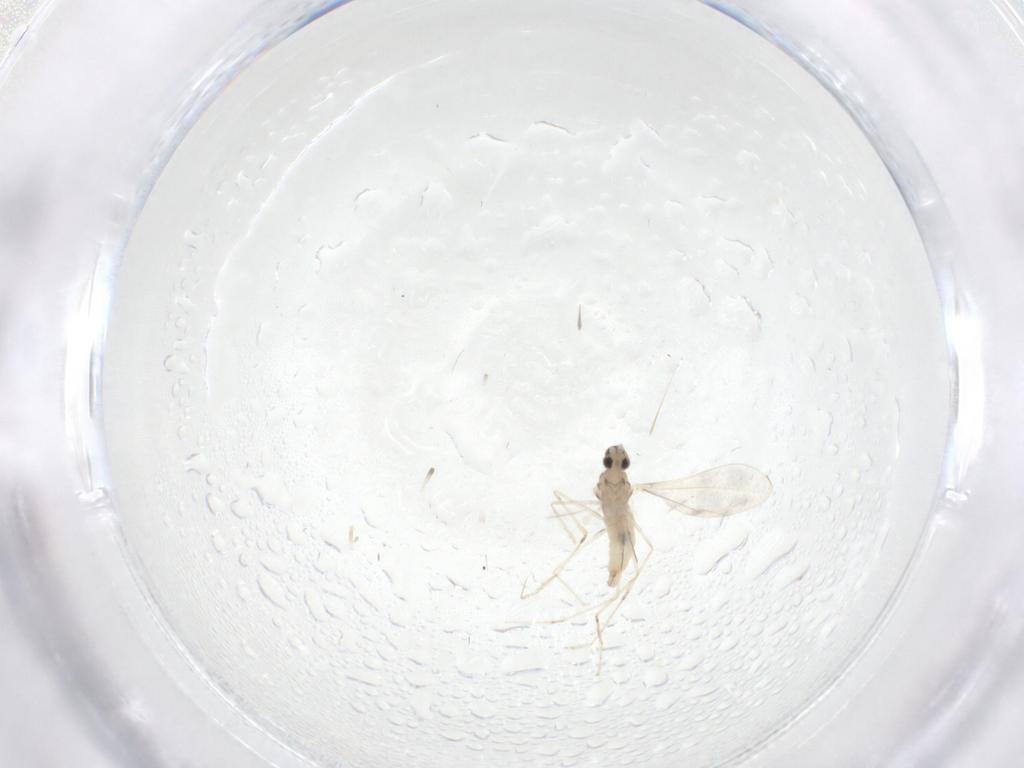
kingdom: Animalia
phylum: Arthropoda
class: Insecta
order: Diptera
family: Cecidomyiidae
